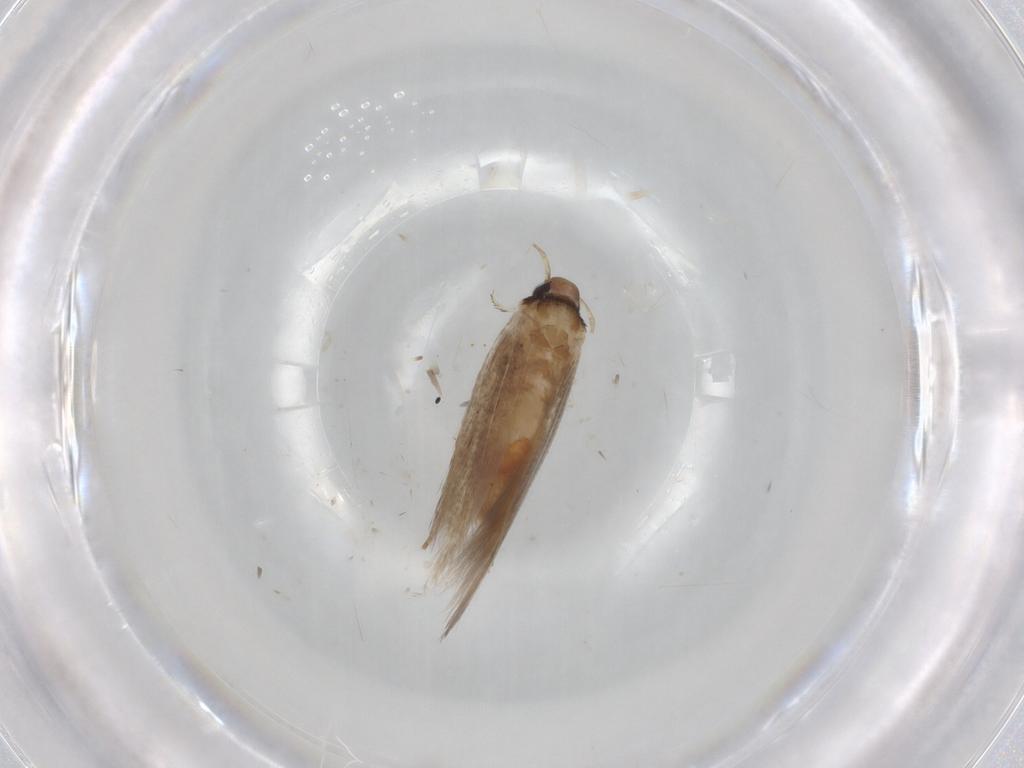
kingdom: Animalia
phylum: Arthropoda
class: Insecta
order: Lepidoptera
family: Cosmopterigidae
